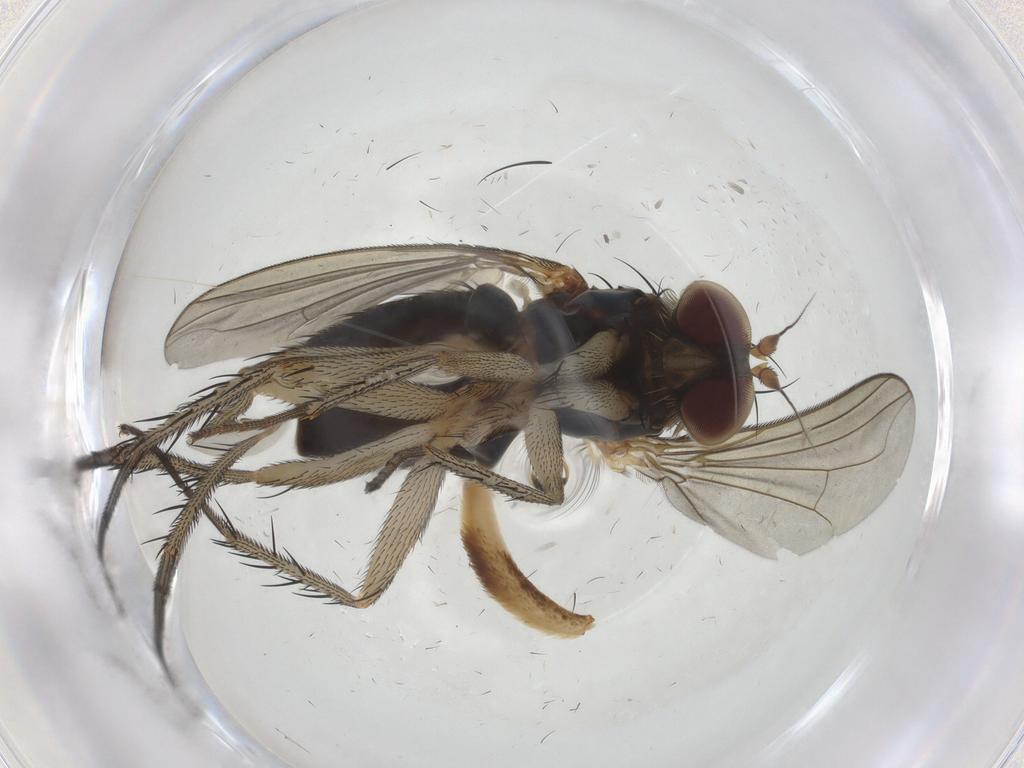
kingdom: Animalia
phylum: Arthropoda
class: Insecta
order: Diptera
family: Dolichopodidae
